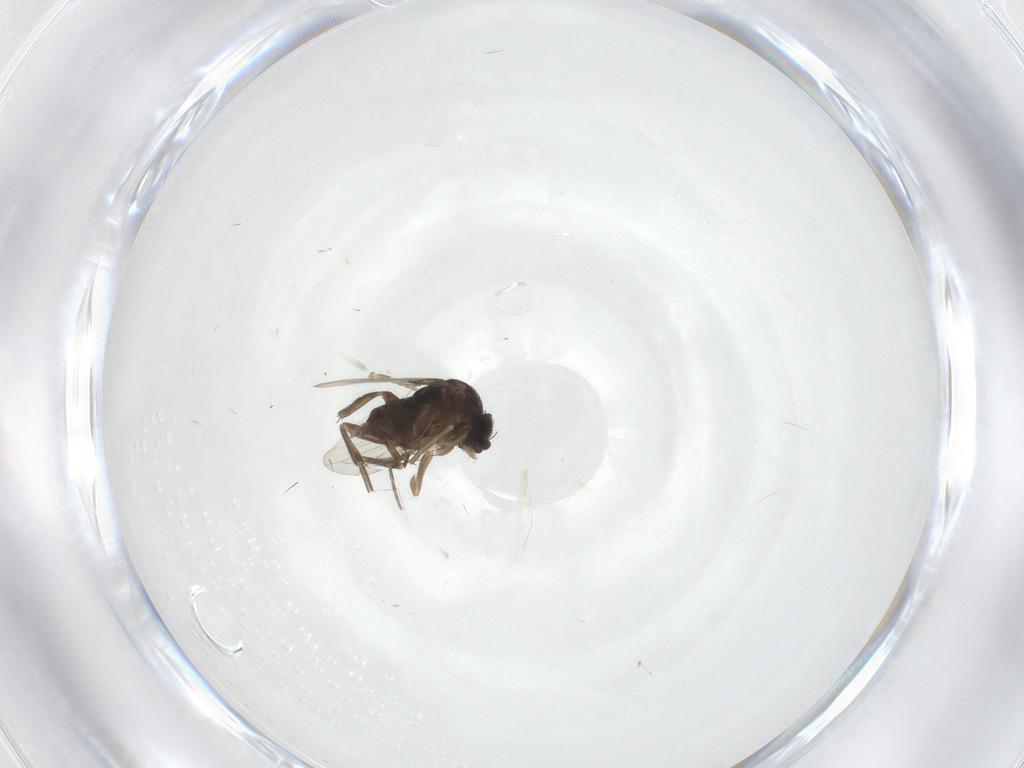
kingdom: Animalia
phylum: Arthropoda
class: Insecta
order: Diptera
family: Phoridae
